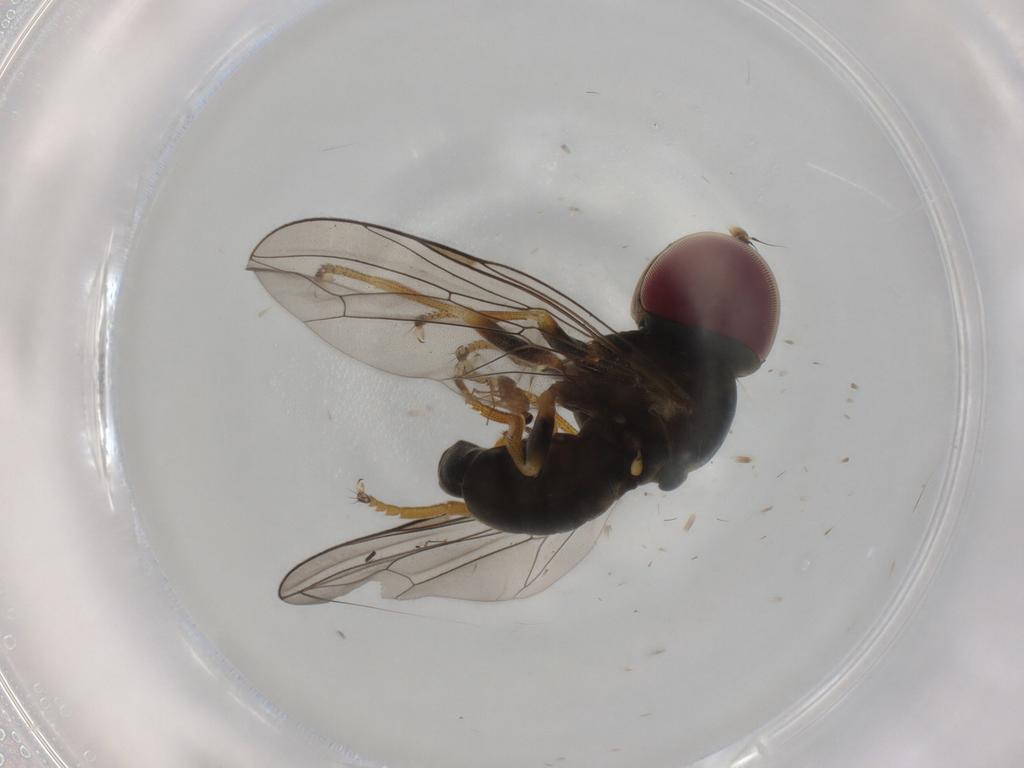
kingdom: Animalia
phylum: Arthropoda
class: Insecta
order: Diptera
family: Pipunculidae
